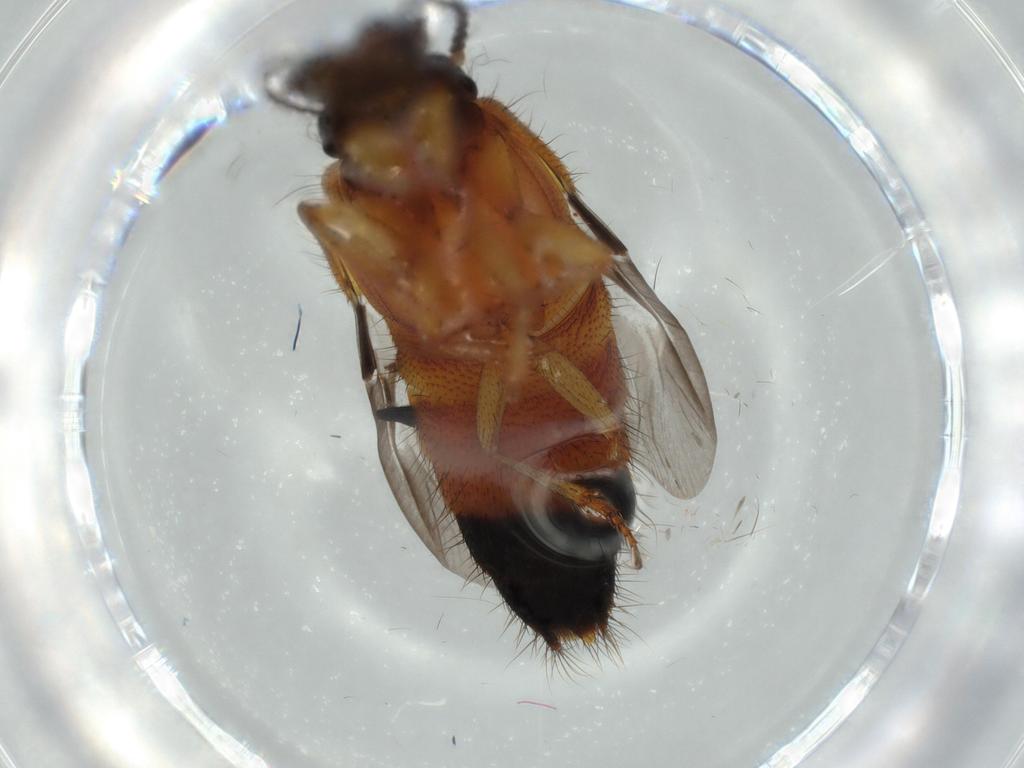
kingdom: Animalia
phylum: Arthropoda
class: Insecta
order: Coleoptera
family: Staphylinidae
